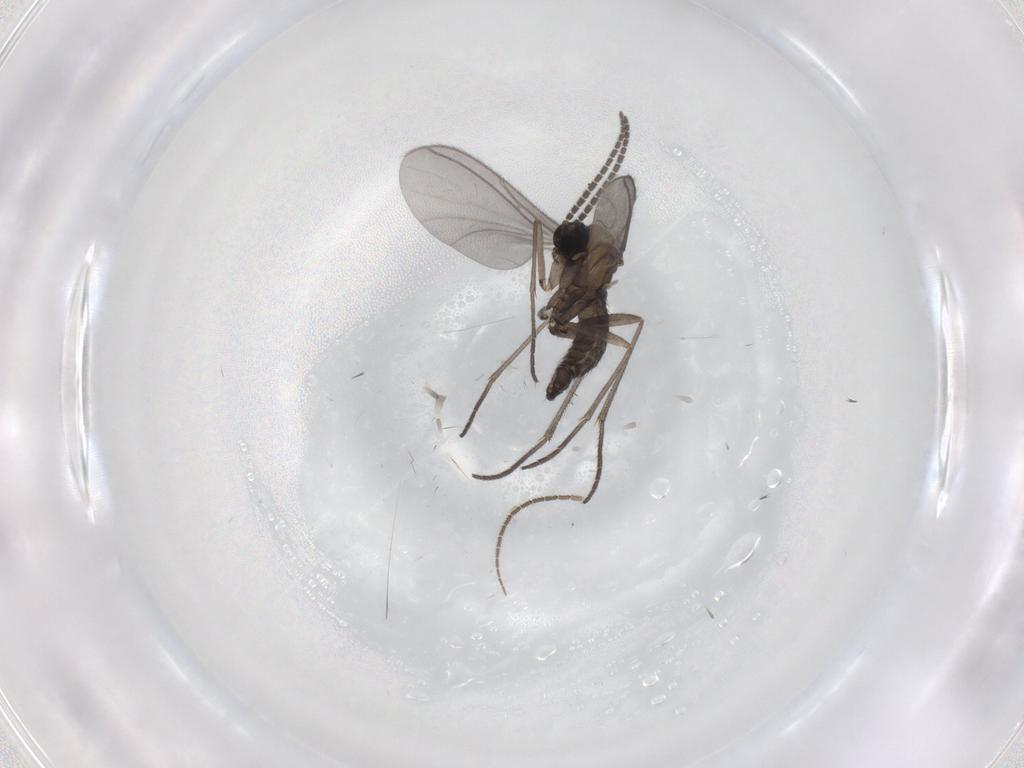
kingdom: Animalia
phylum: Arthropoda
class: Insecta
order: Diptera
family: Sciaridae
